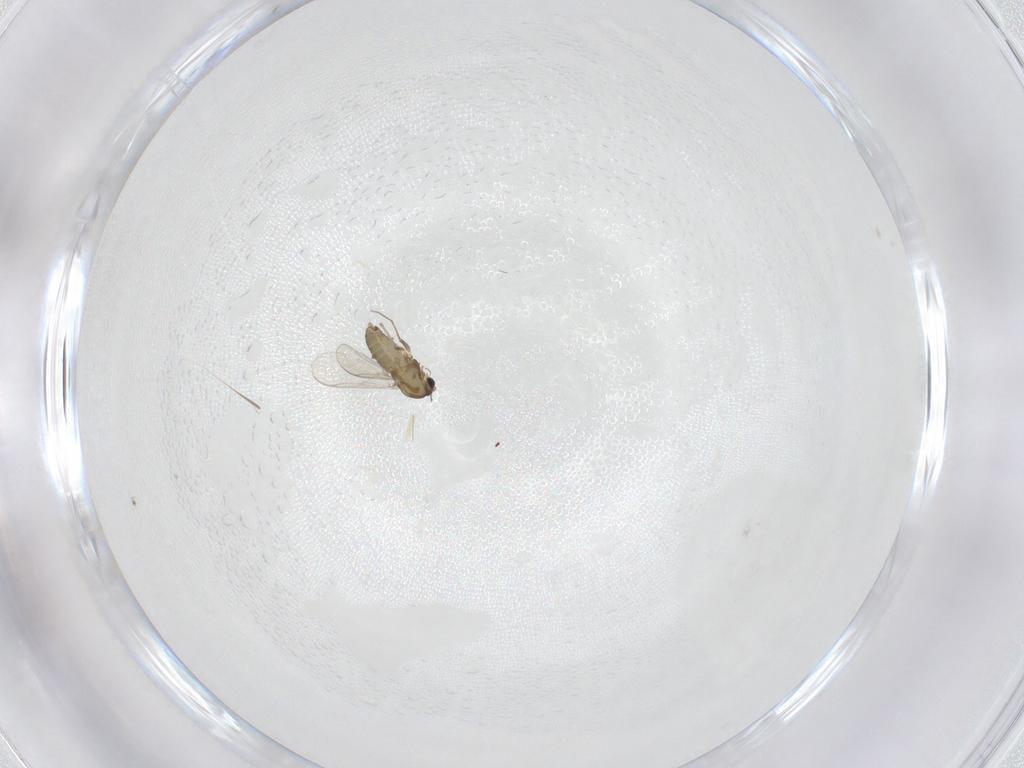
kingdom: Animalia
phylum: Arthropoda
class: Insecta
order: Diptera
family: Chironomidae
